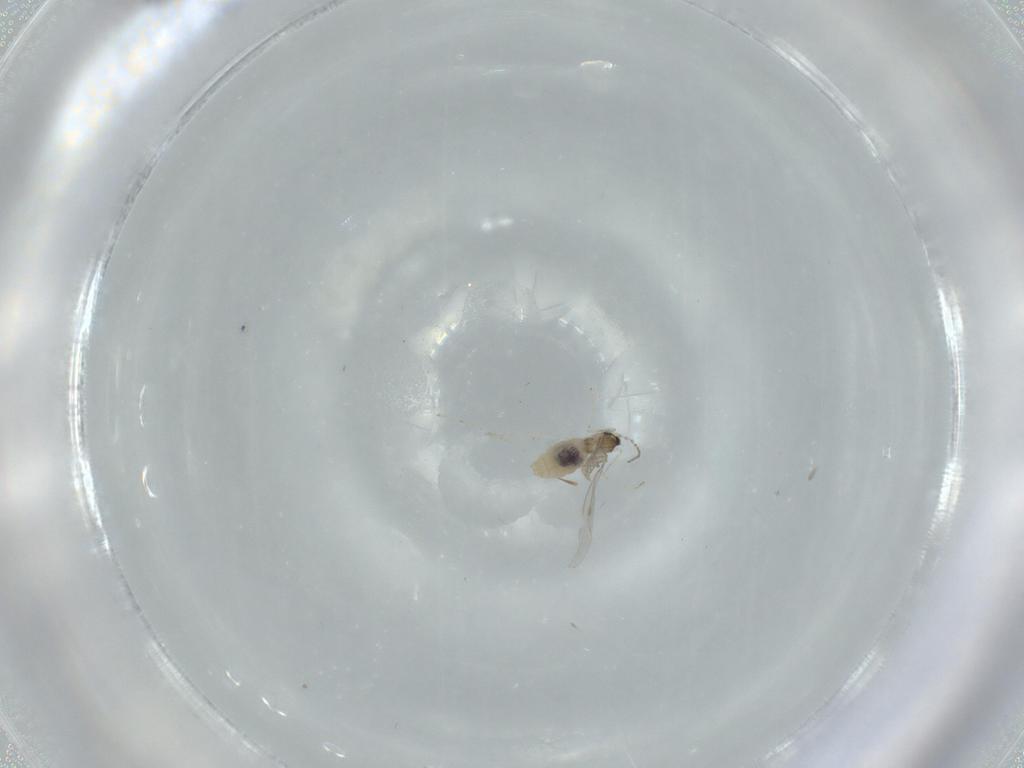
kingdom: Animalia
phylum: Arthropoda
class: Insecta
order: Diptera
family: Cecidomyiidae
